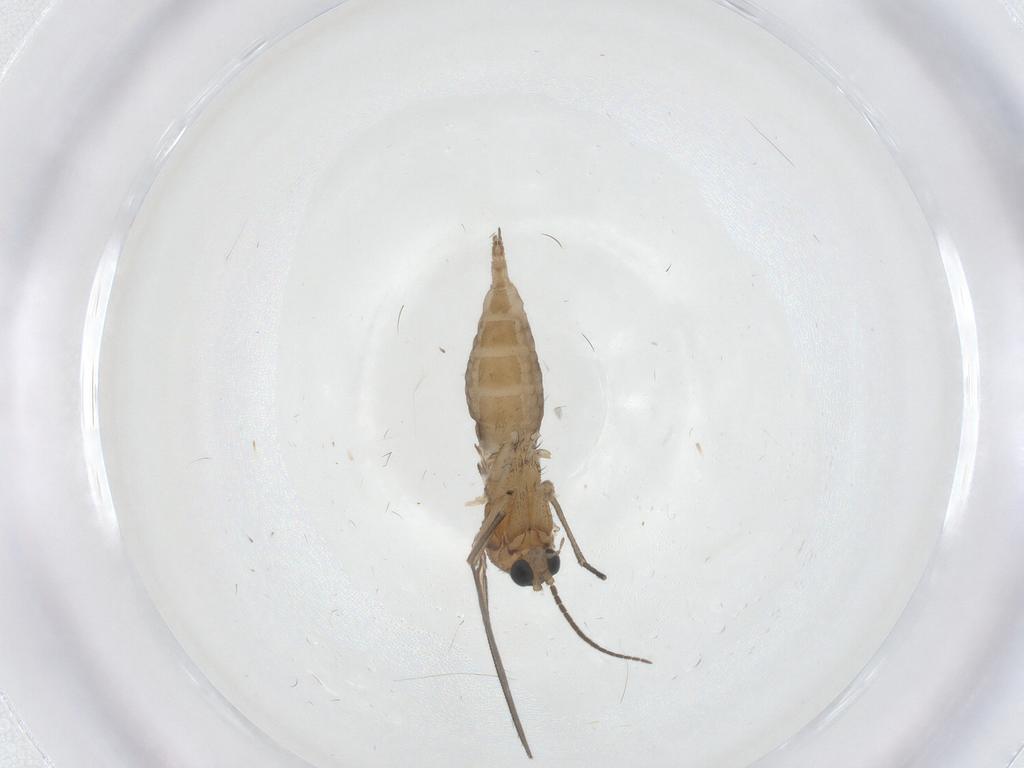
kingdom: Animalia
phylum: Arthropoda
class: Insecta
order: Diptera
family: Sciaridae
